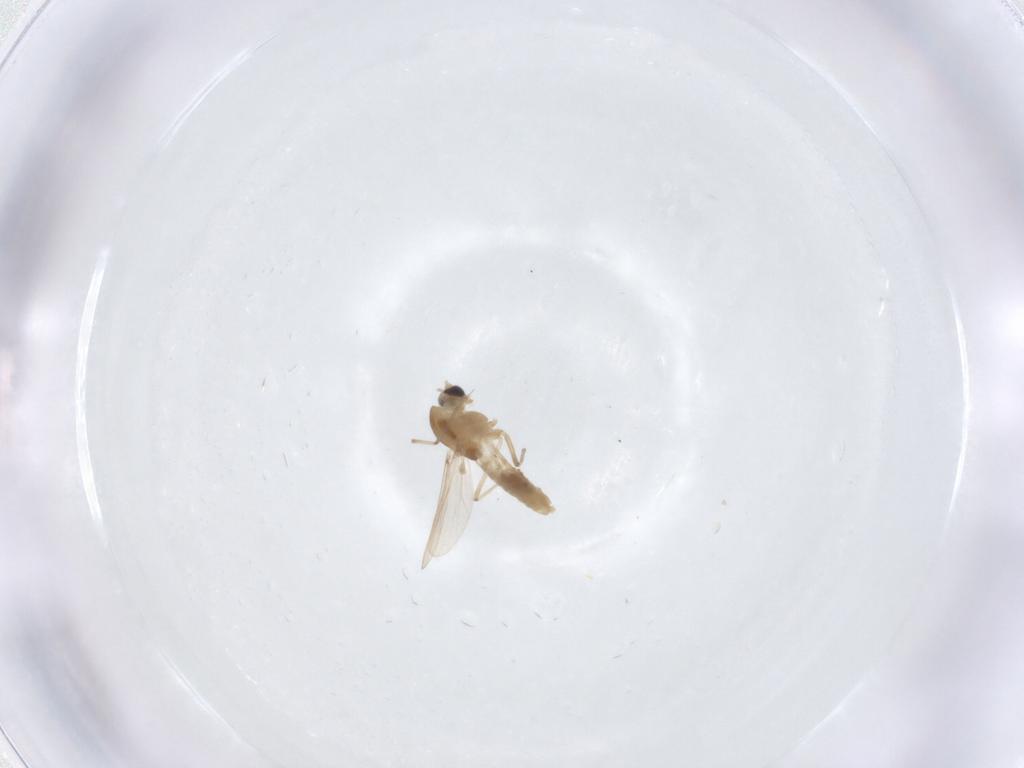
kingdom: Animalia
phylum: Arthropoda
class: Insecta
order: Diptera
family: Chironomidae
